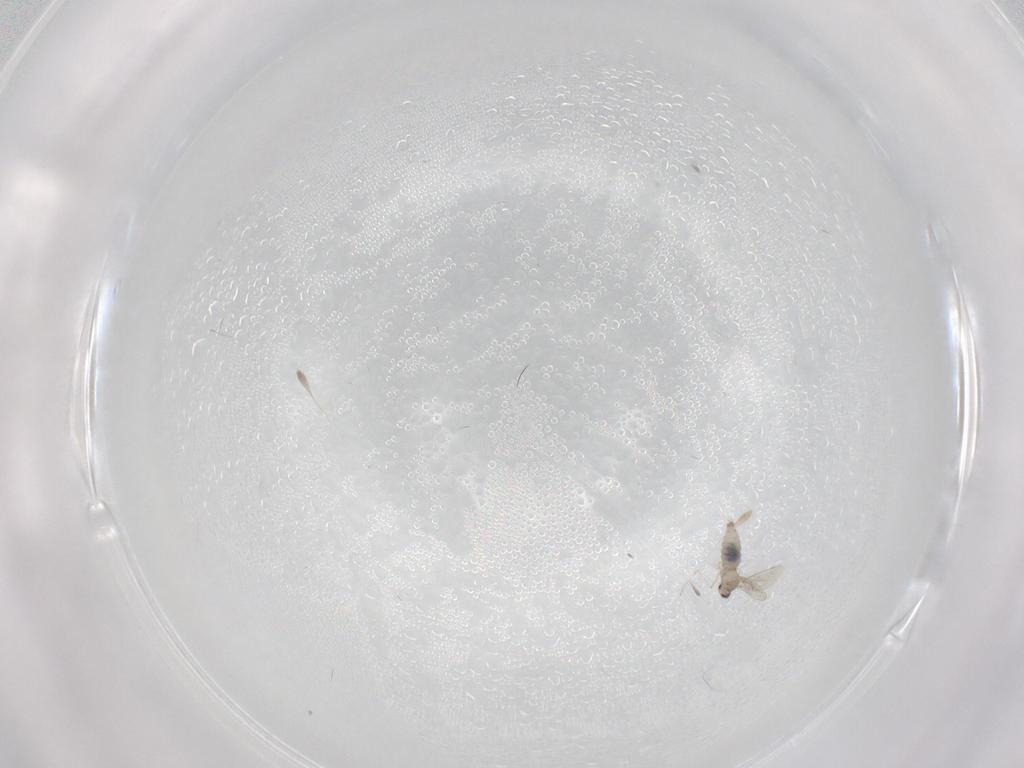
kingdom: Animalia
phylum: Arthropoda
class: Insecta
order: Diptera
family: Cecidomyiidae
